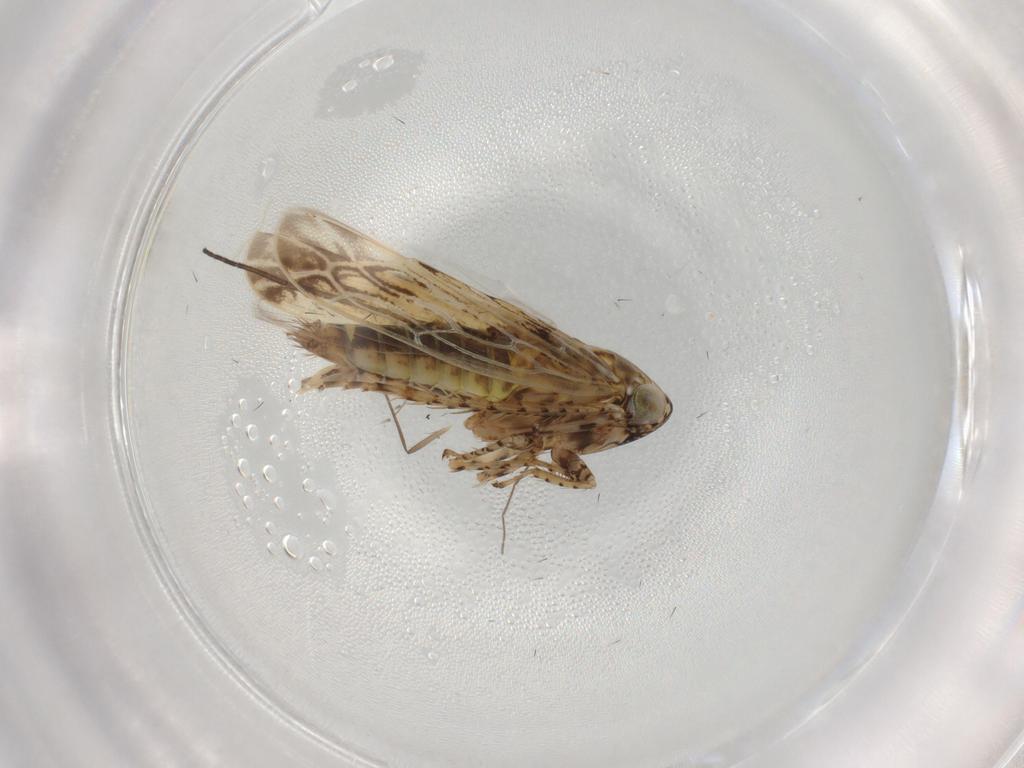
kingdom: Animalia
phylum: Arthropoda
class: Insecta
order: Hemiptera
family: Cicadellidae
